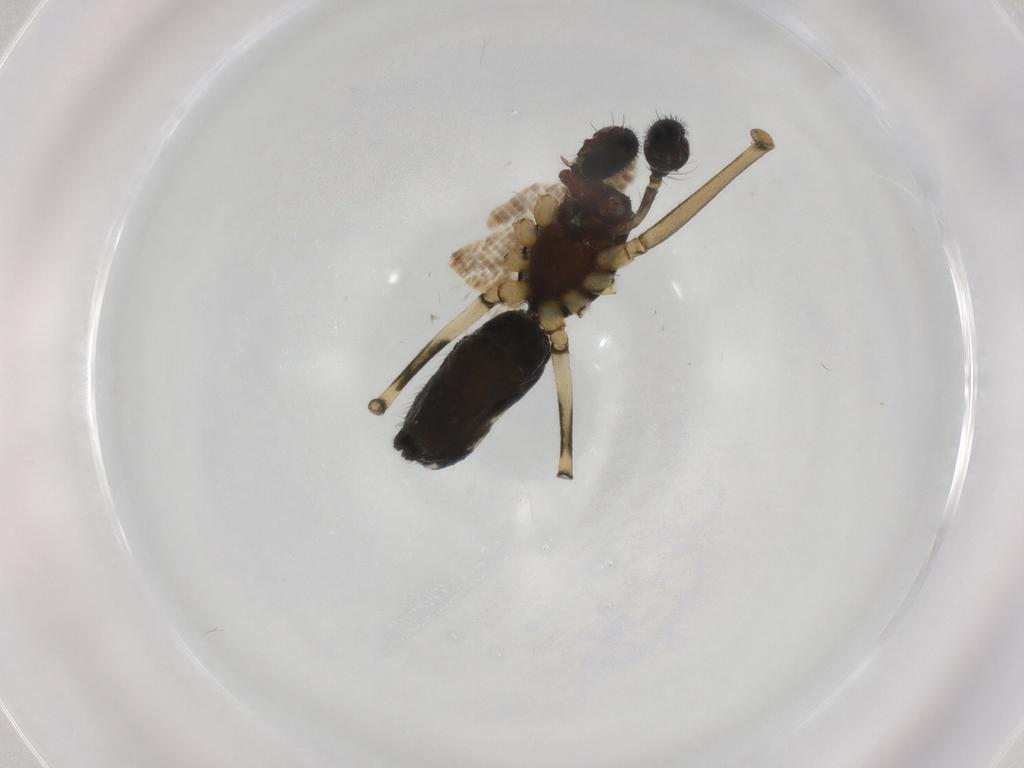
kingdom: Animalia
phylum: Arthropoda
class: Arachnida
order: Araneae
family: Theridiidae
